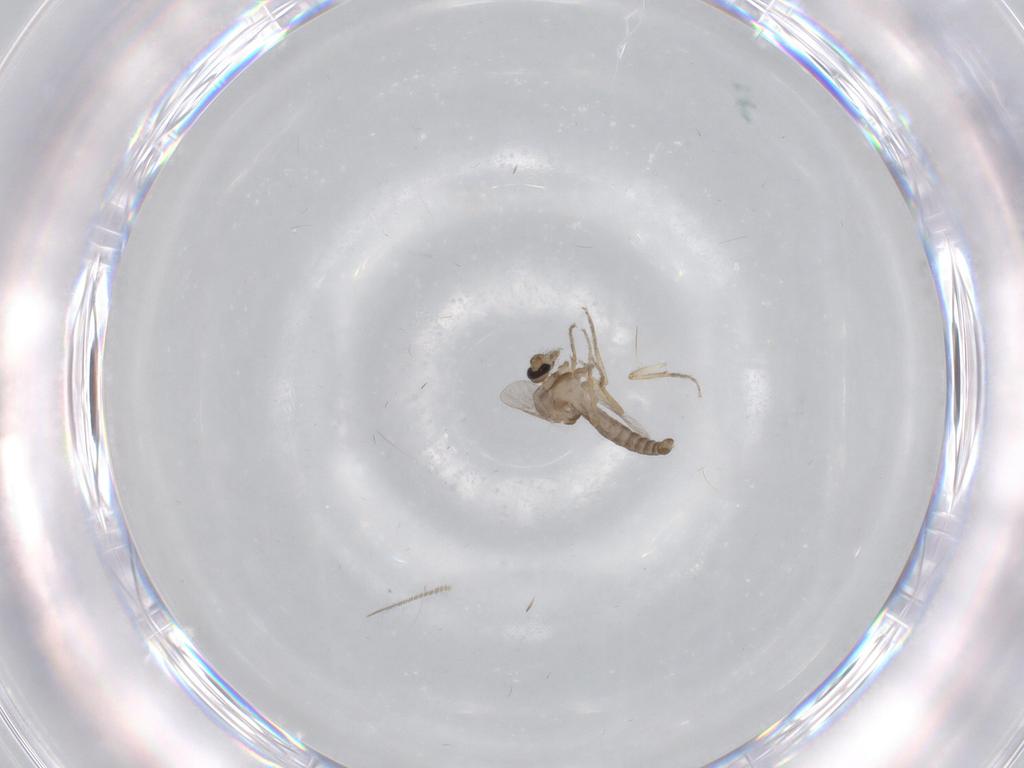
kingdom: Animalia
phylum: Arthropoda
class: Insecta
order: Diptera
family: Ceratopogonidae
